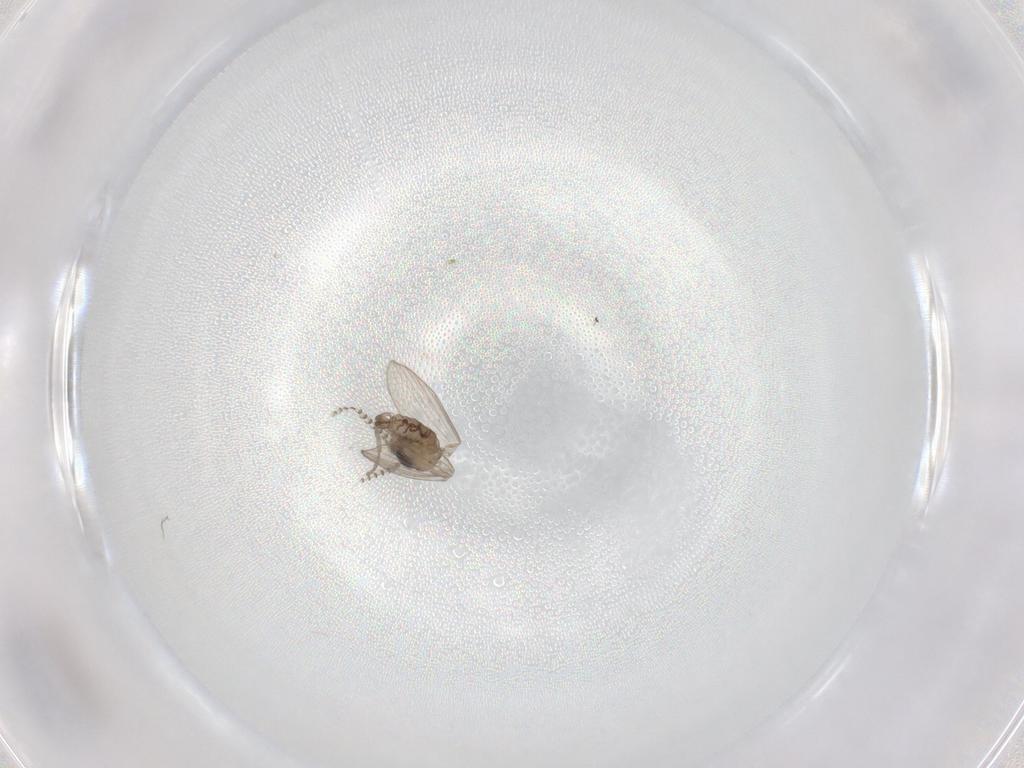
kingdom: Animalia
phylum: Arthropoda
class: Insecta
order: Diptera
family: Psychodidae
